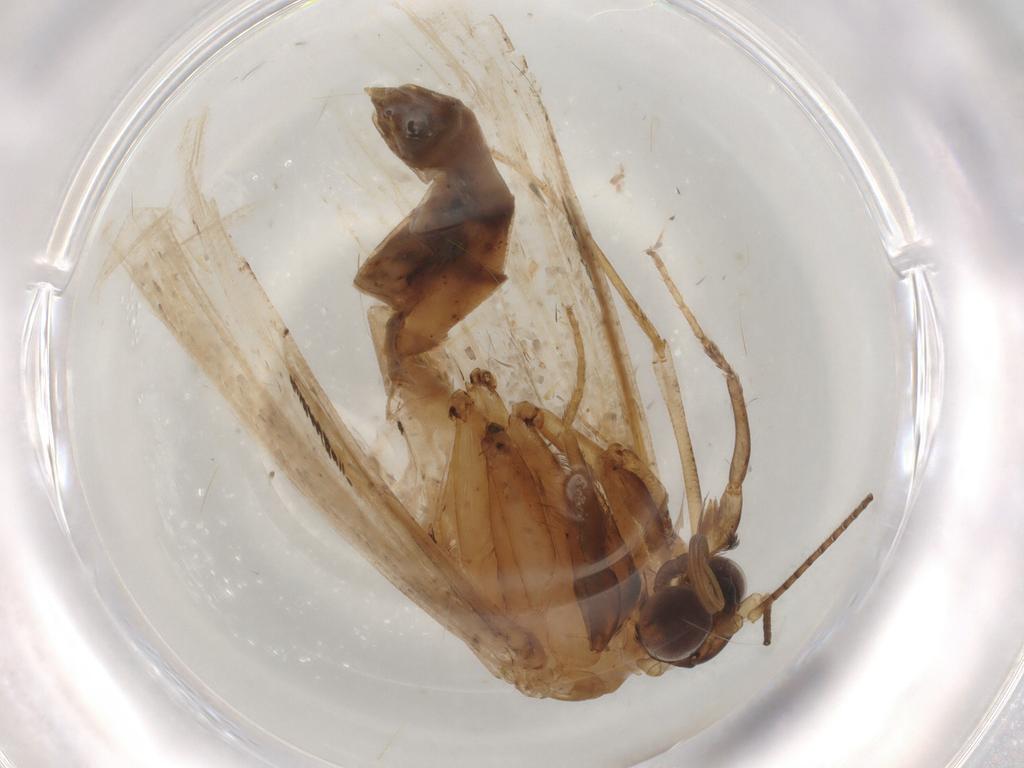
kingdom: Animalia
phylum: Arthropoda
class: Insecta
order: Lepidoptera
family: Erebidae
